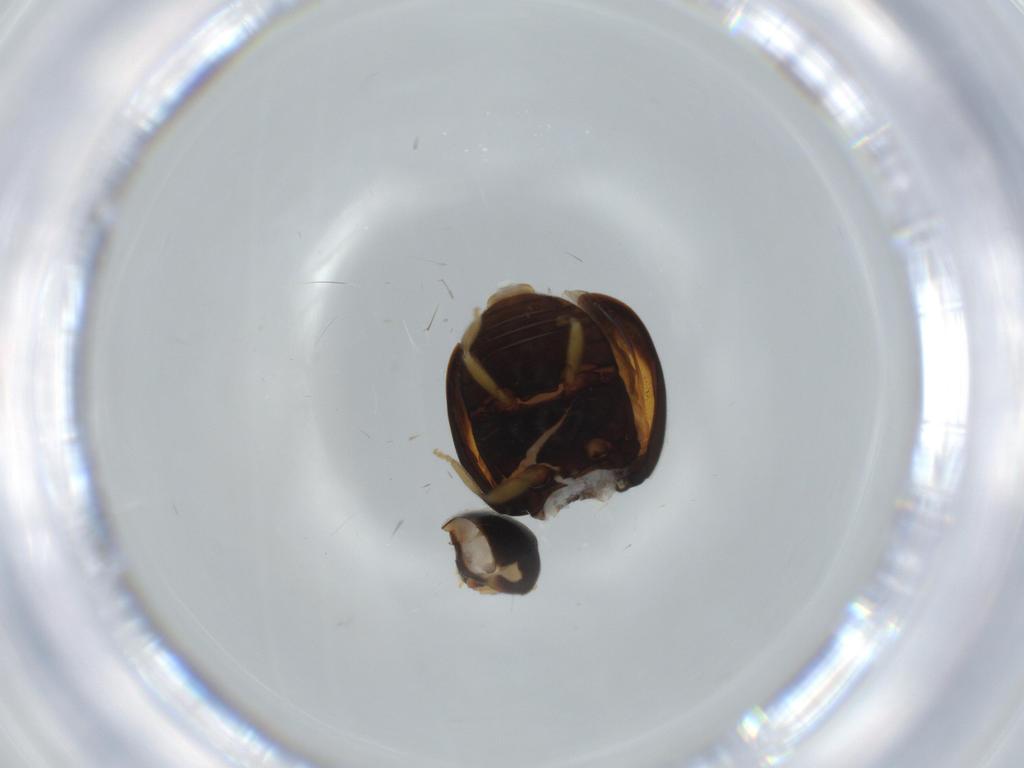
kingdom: Animalia
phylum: Arthropoda
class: Insecta
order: Coleoptera
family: Coccinellidae
